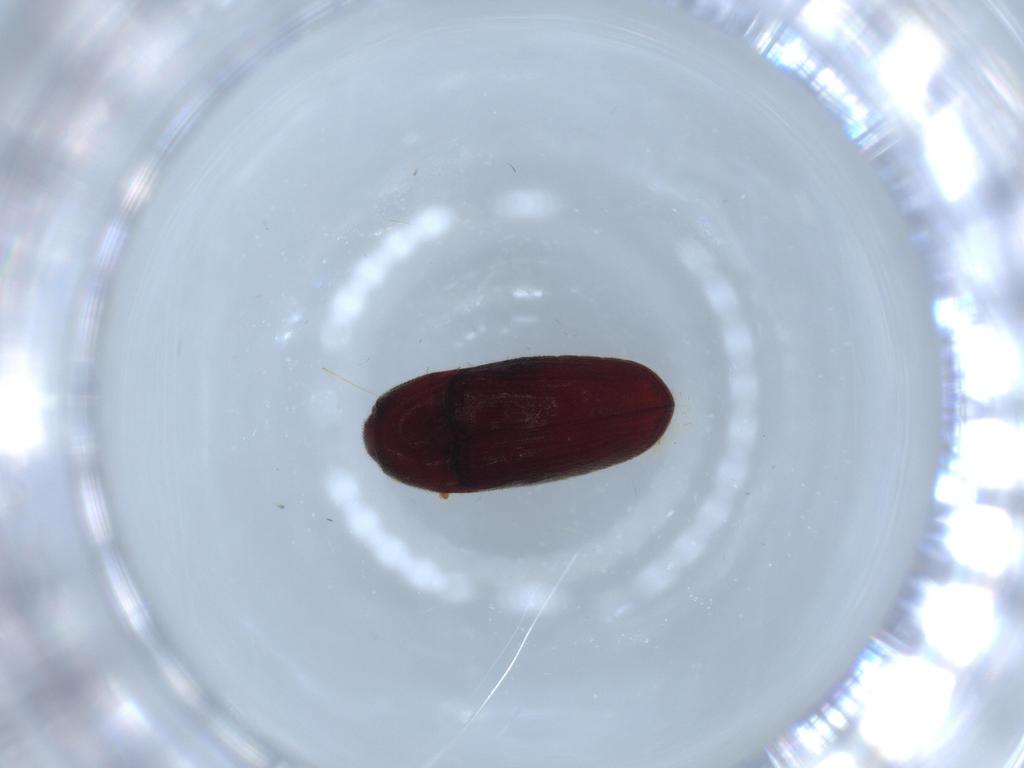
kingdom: Animalia
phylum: Arthropoda
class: Insecta
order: Coleoptera
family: Throscidae
